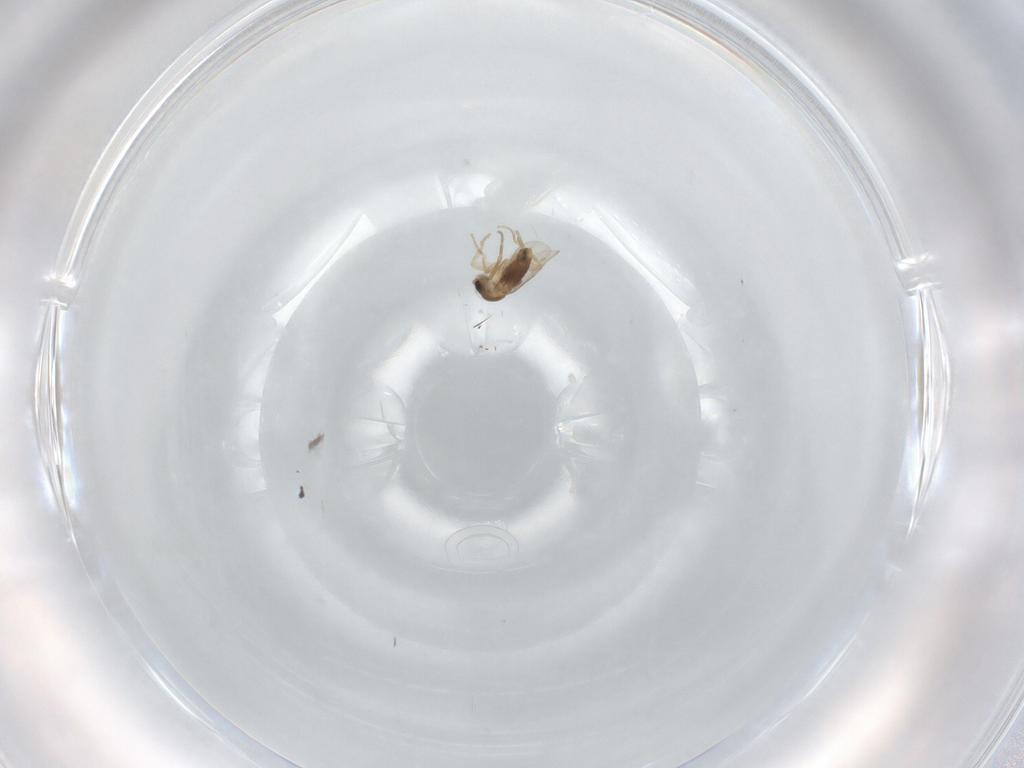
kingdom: Animalia
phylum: Arthropoda
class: Insecta
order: Diptera
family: Phoridae
